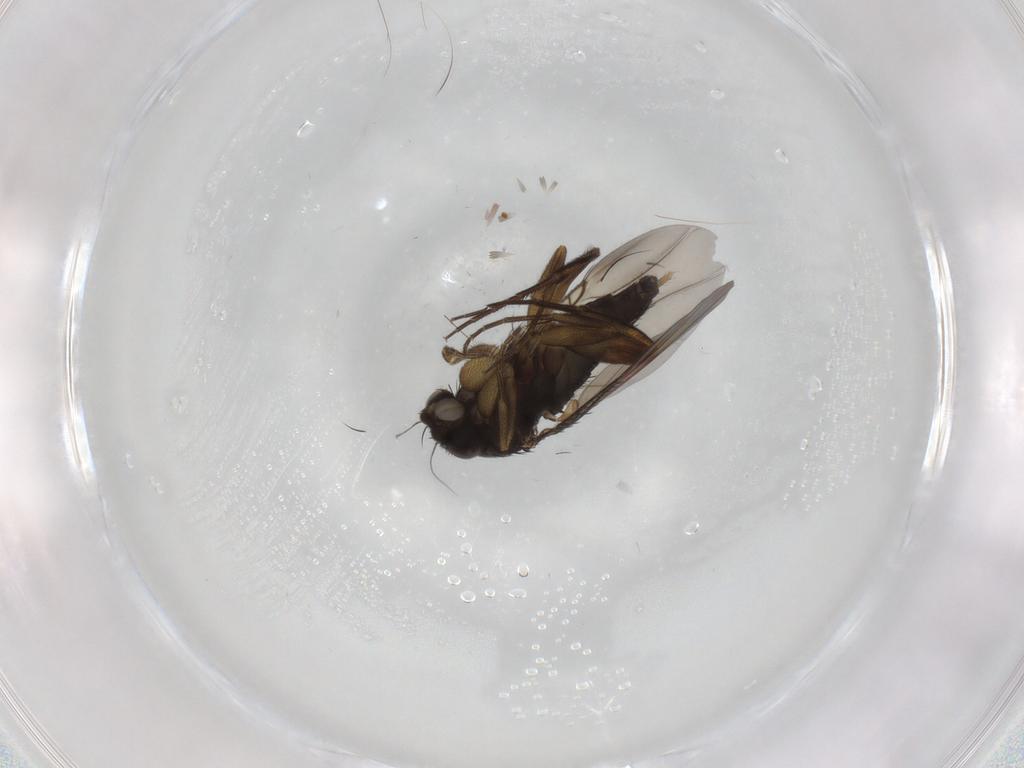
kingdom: Animalia
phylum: Arthropoda
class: Insecta
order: Diptera
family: Phoridae
